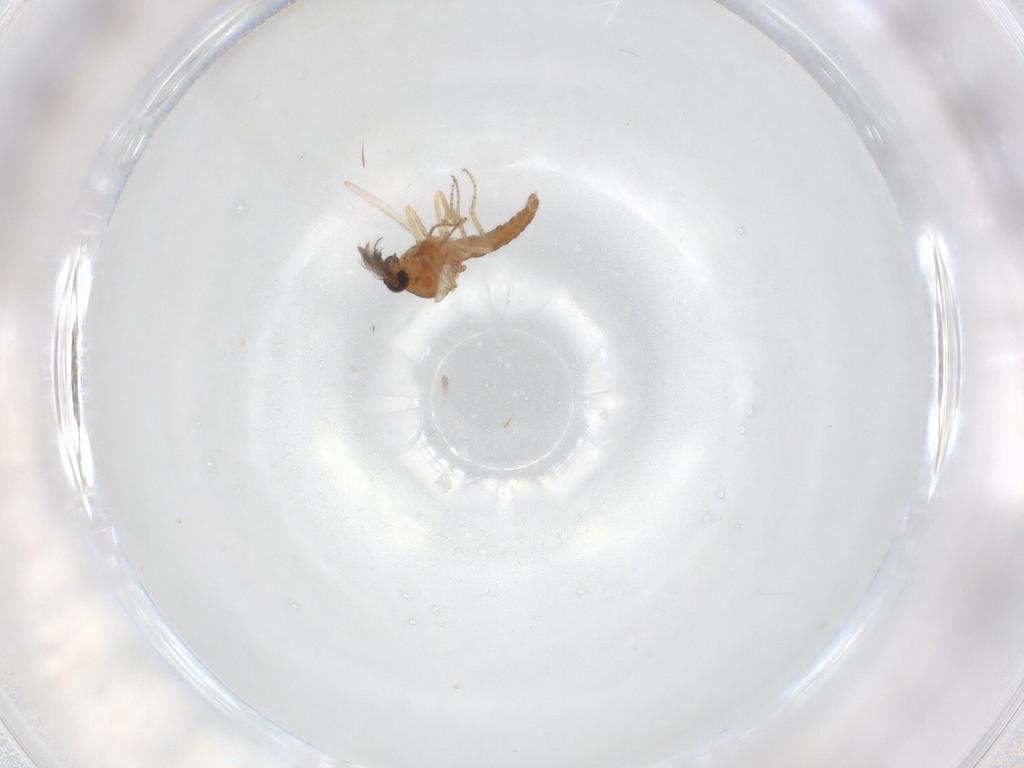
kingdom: Animalia
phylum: Arthropoda
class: Insecta
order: Diptera
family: Ceratopogonidae
